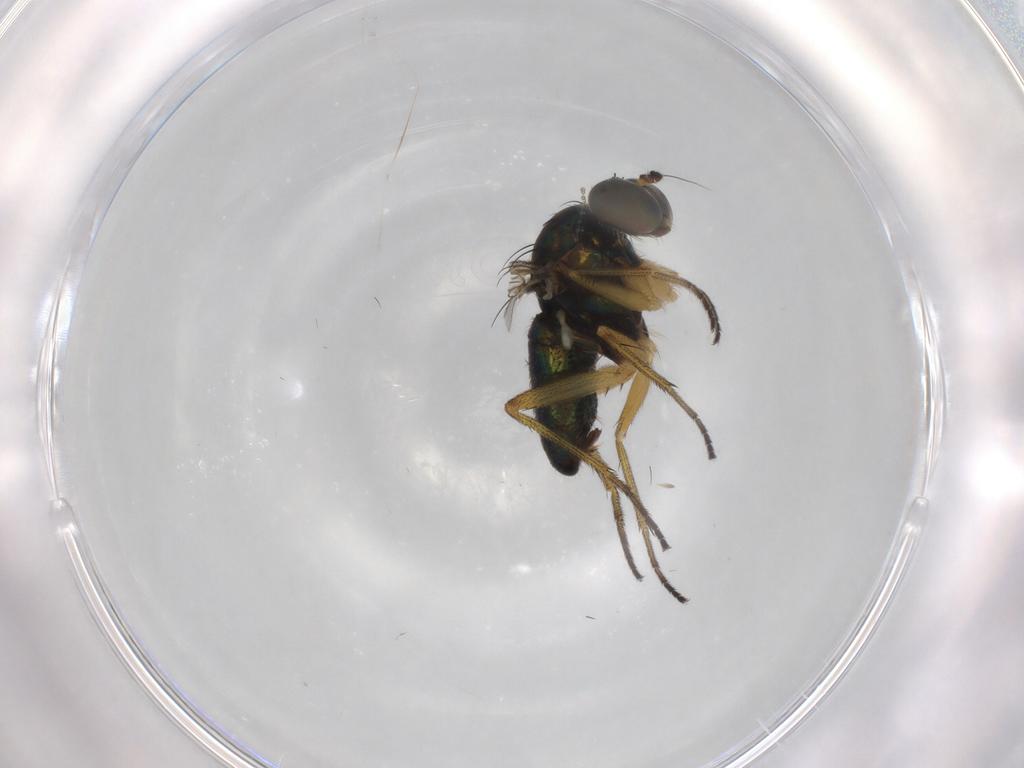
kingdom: Animalia
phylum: Arthropoda
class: Insecta
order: Diptera
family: Dolichopodidae
